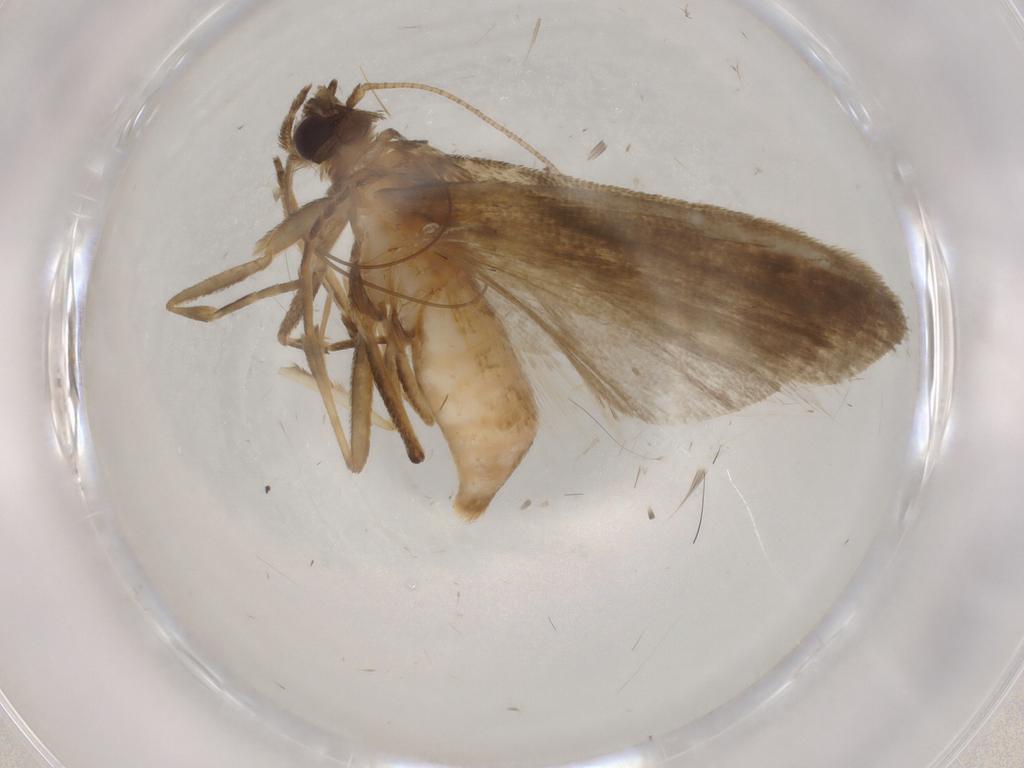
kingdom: Animalia
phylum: Arthropoda
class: Insecta
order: Lepidoptera
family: Noctuidae
